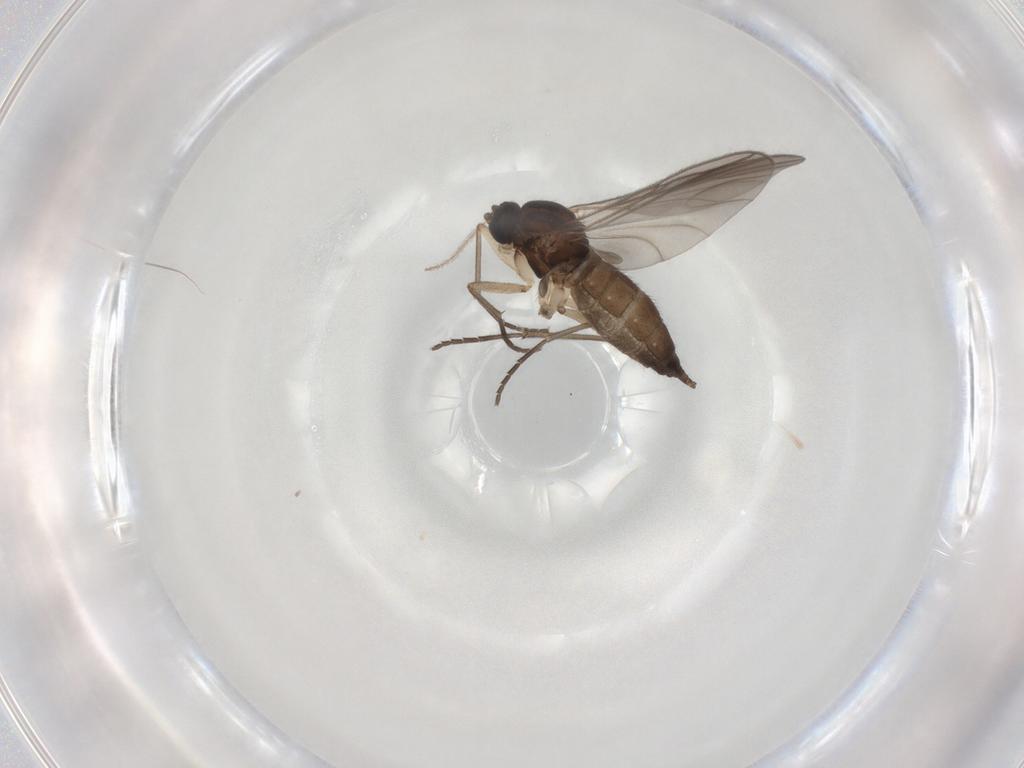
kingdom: Animalia
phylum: Arthropoda
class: Insecta
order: Diptera
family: Sciaridae
